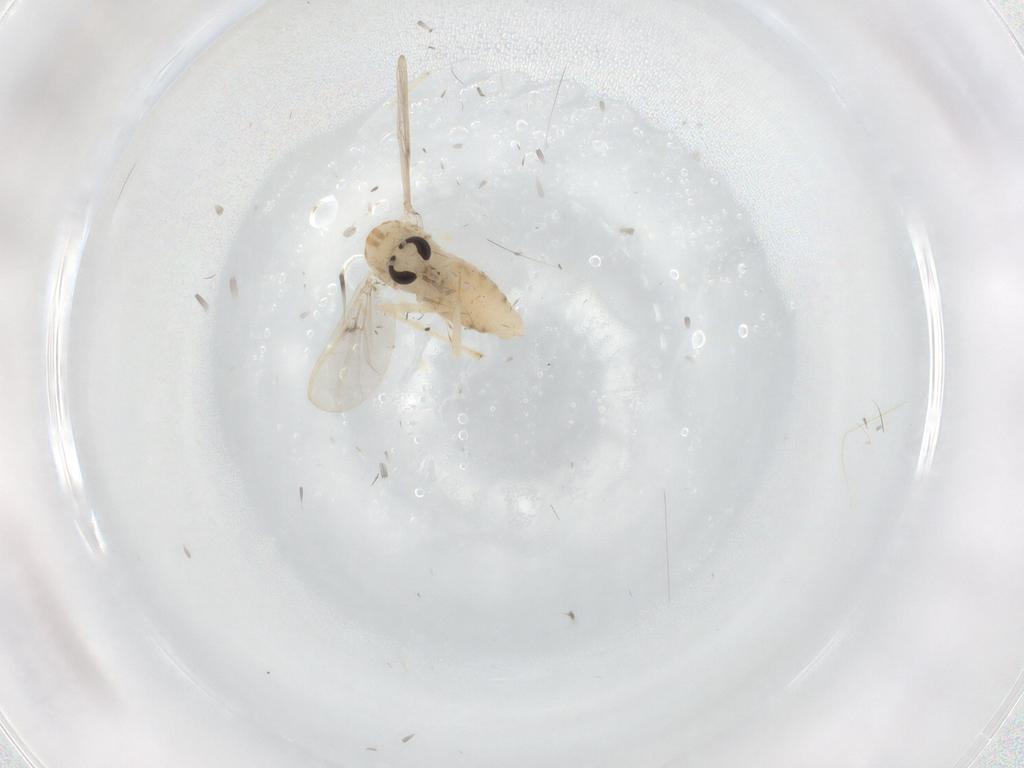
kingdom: Animalia
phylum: Arthropoda
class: Insecta
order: Diptera
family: Chironomidae
